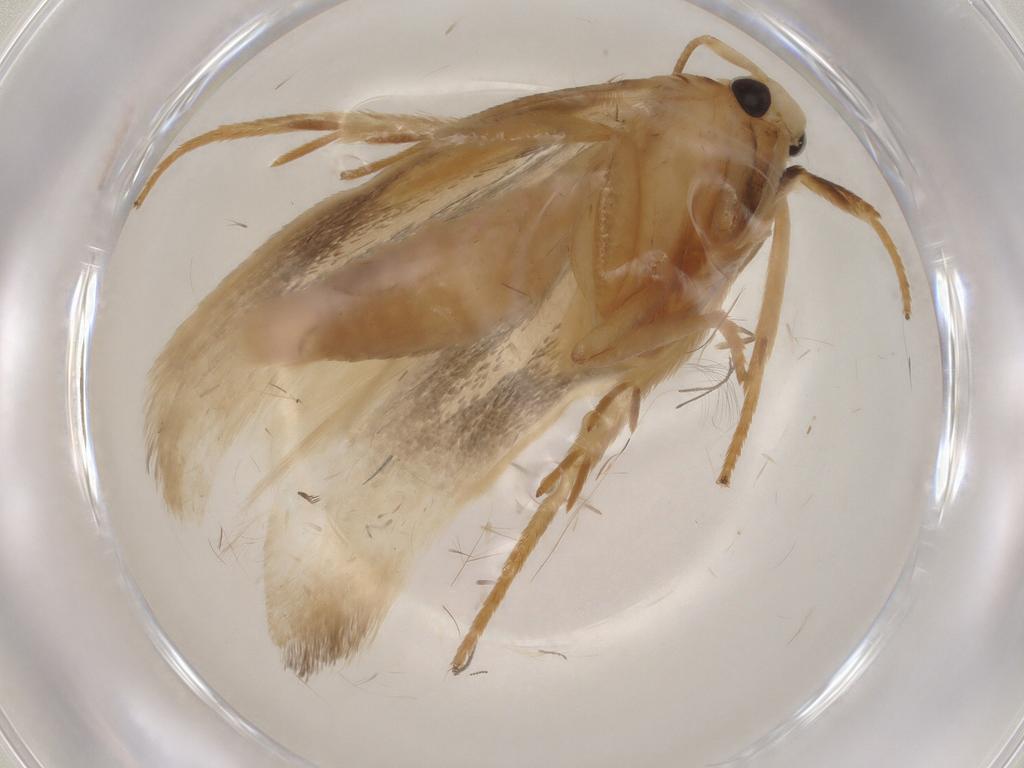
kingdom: Animalia
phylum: Arthropoda
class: Insecta
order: Lepidoptera
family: Geometridae
